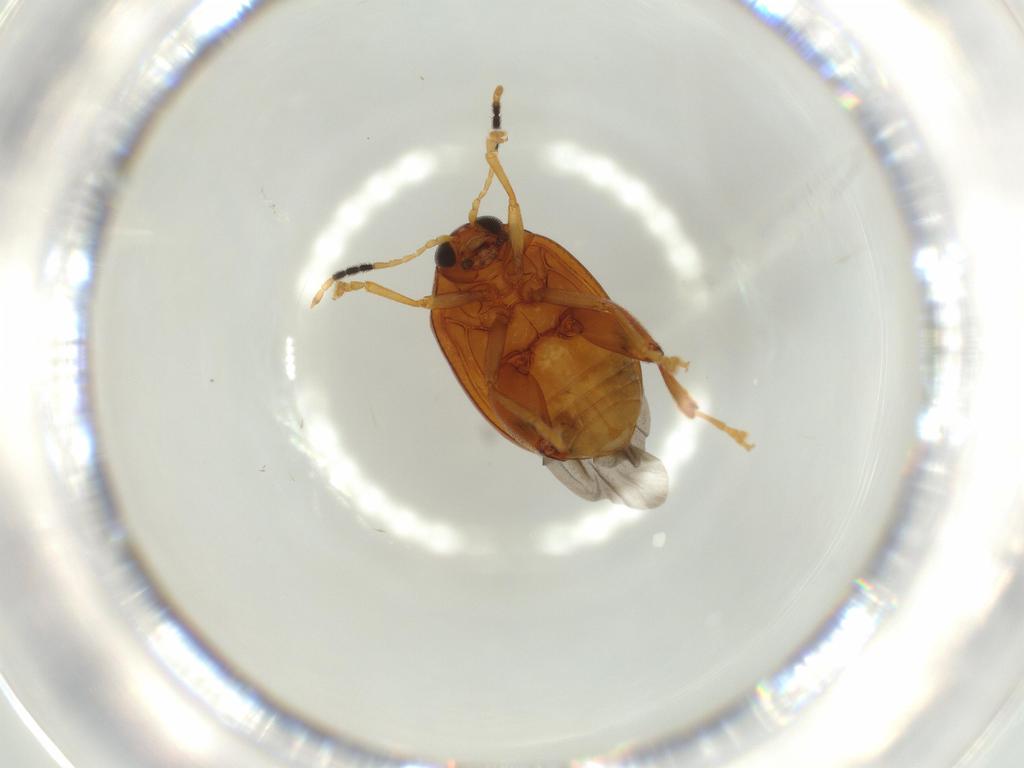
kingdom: Animalia
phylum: Arthropoda
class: Insecta
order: Coleoptera
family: Chrysomelidae
